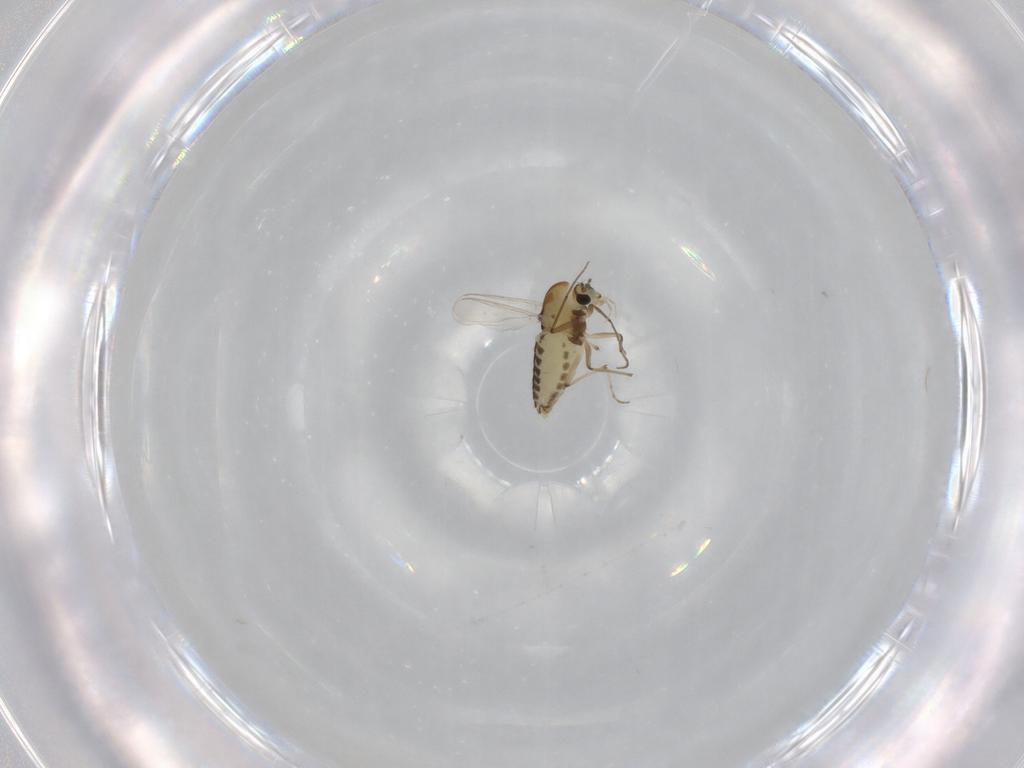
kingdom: Animalia
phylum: Arthropoda
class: Insecta
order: Diptera
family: Chironomidae
